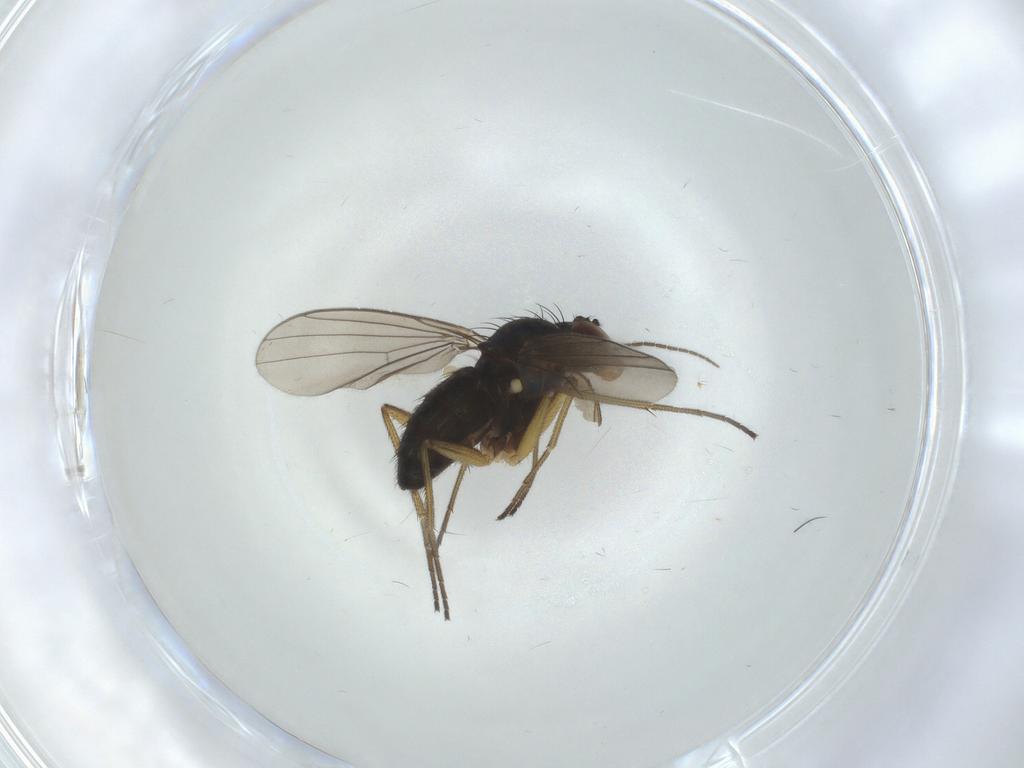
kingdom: Animalia
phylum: Arthropoda
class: Insecta
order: Diptera
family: Dolichopodidae
